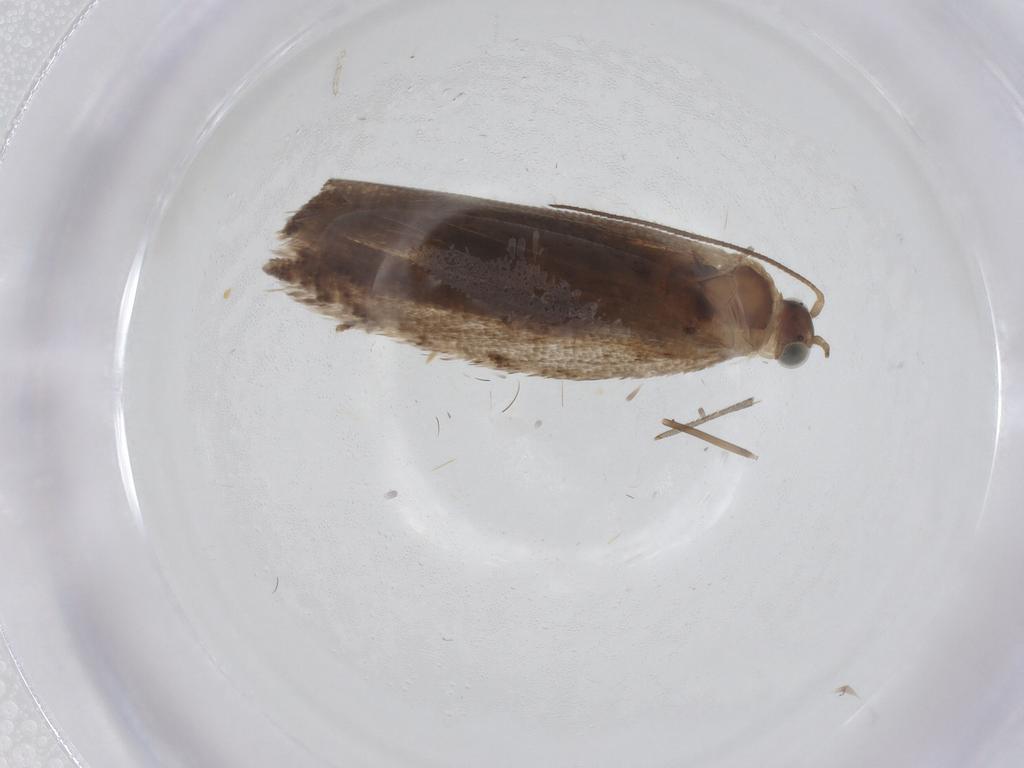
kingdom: Animalia
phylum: Arthropoda
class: Insecta
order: Lepidoptera
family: Tortricidae
